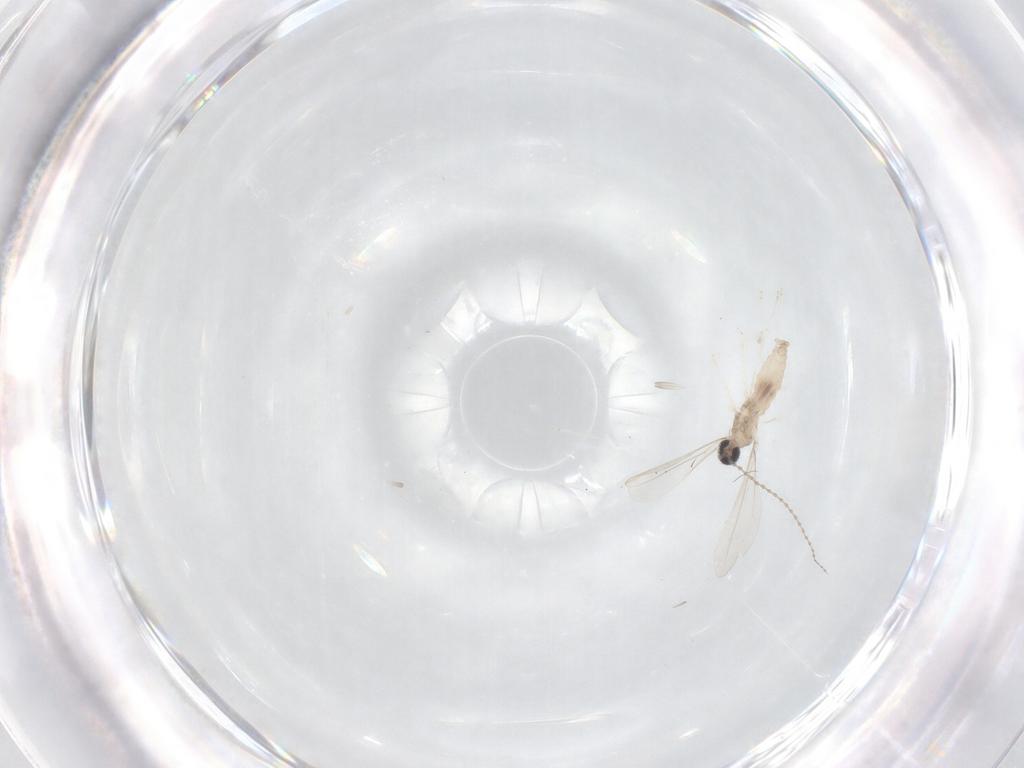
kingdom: Animalia
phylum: Arthropoda
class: Insecta
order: Diptera
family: Cecidomyiidae
